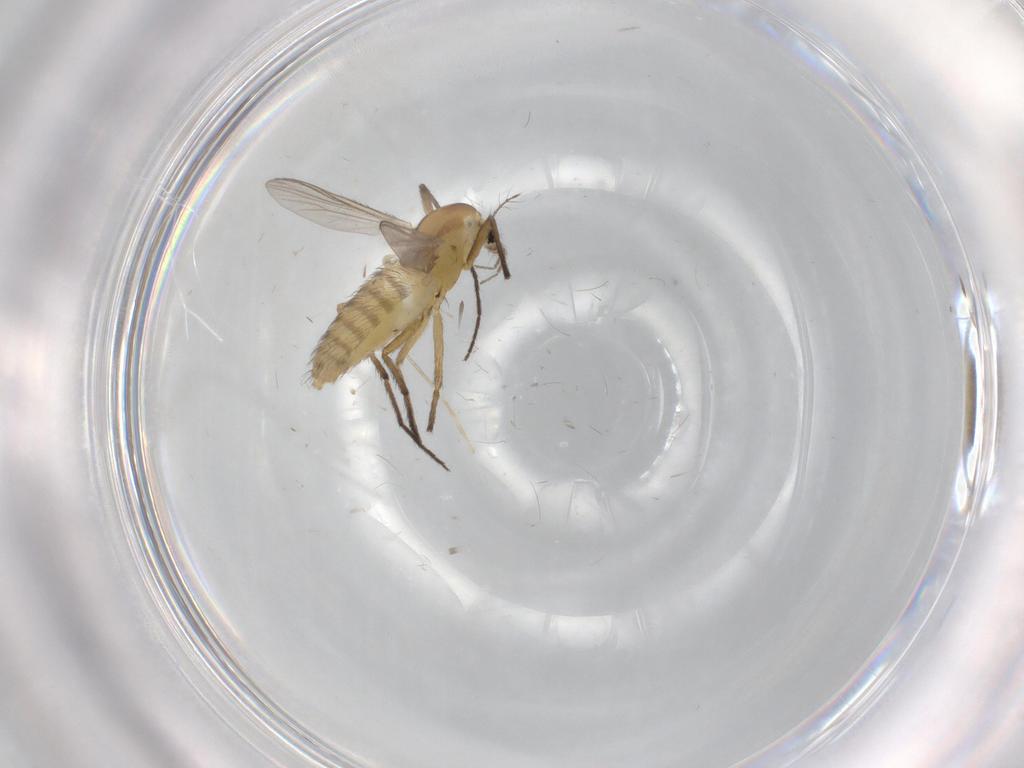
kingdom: Animalia
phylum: Arthropoda
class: Insecta
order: Diptera
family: Chironomidae
